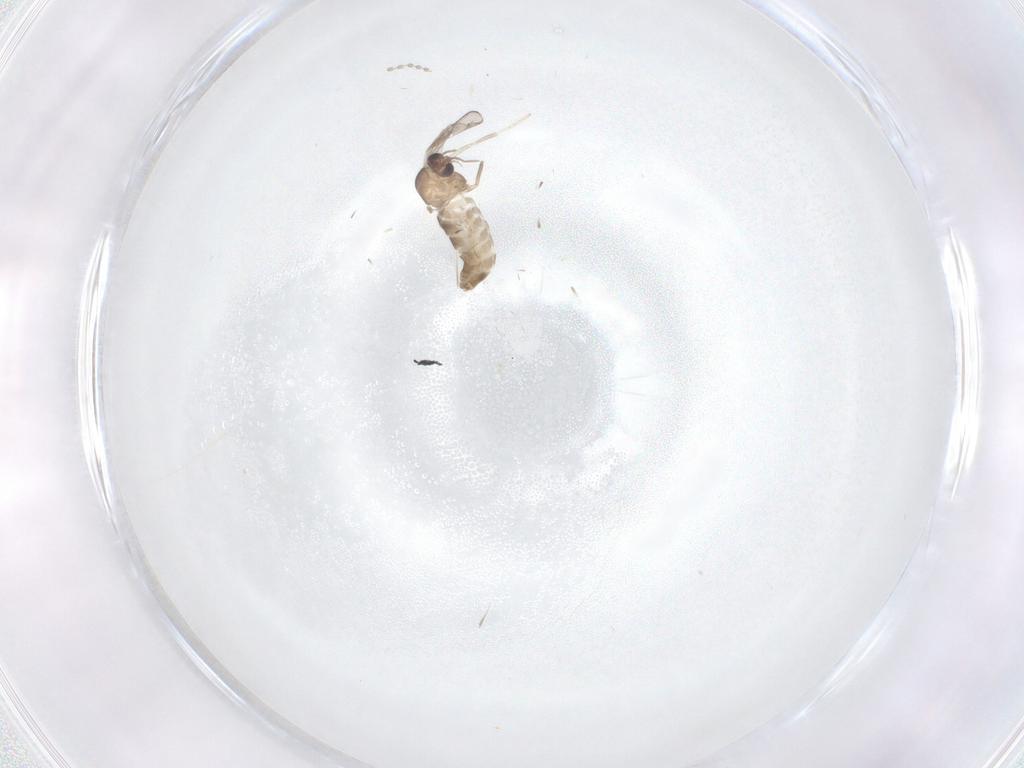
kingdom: Animalia
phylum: Arthropoda
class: Insecta
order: Diptera
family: Chironomidae
